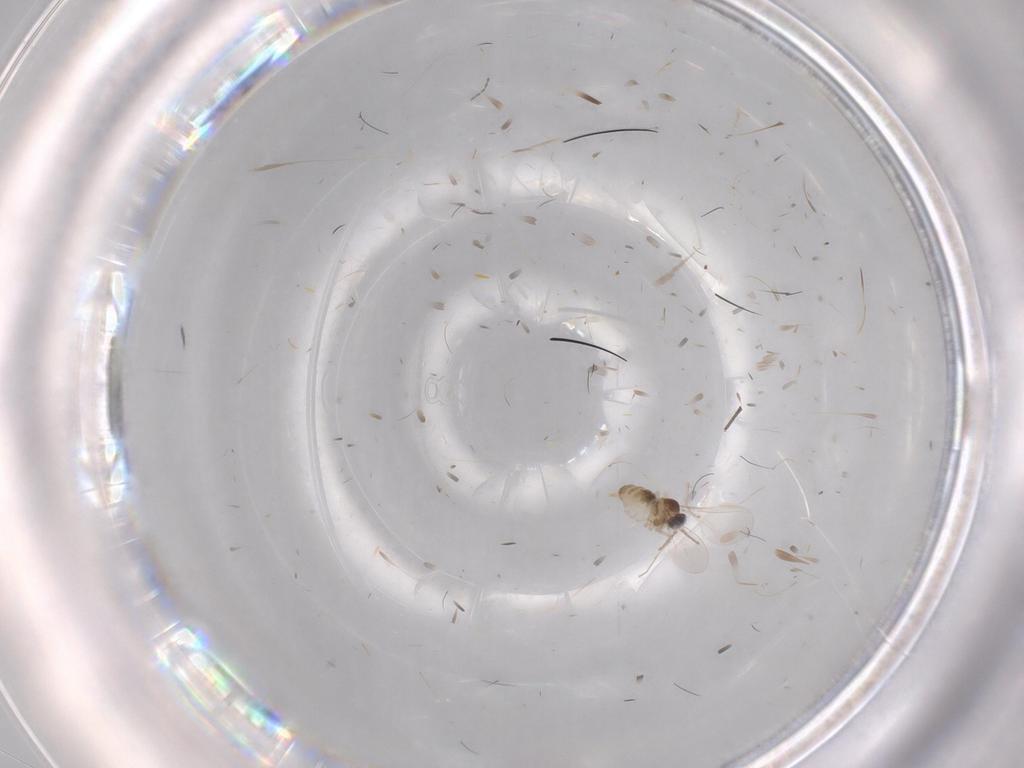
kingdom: Animalia
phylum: Arthropoda
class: Insecta
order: Diptera
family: Cecidomyiidae
